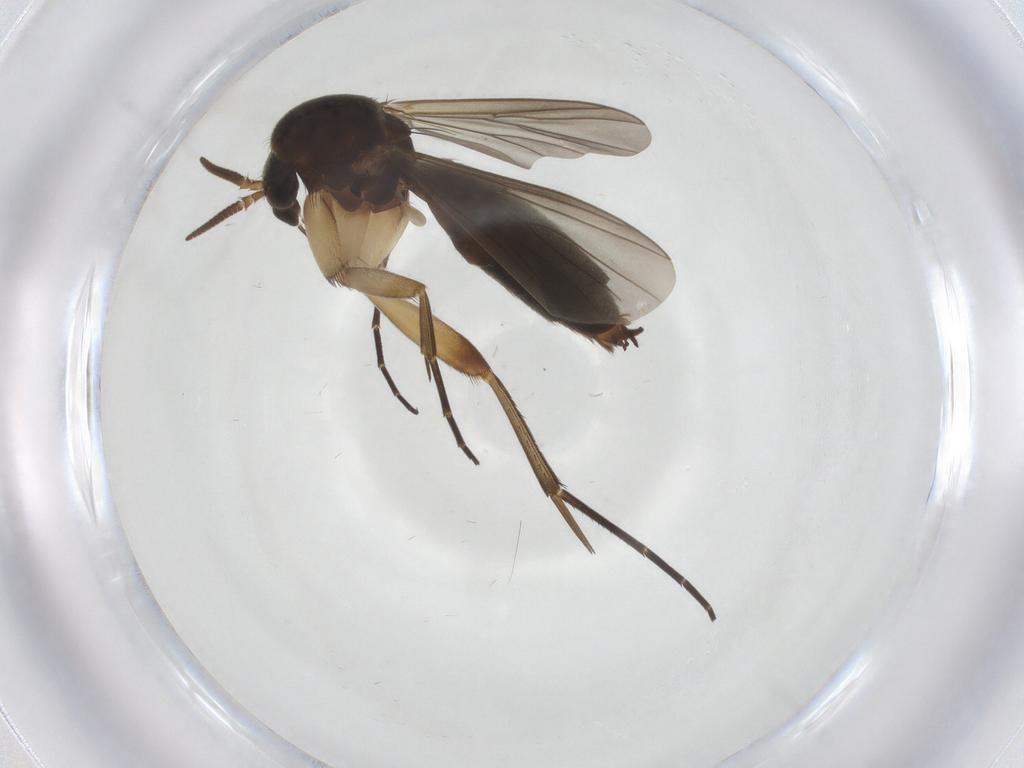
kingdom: Animalia
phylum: Arthropoda
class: Insecta
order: Diptera
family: Mycetophilidae
